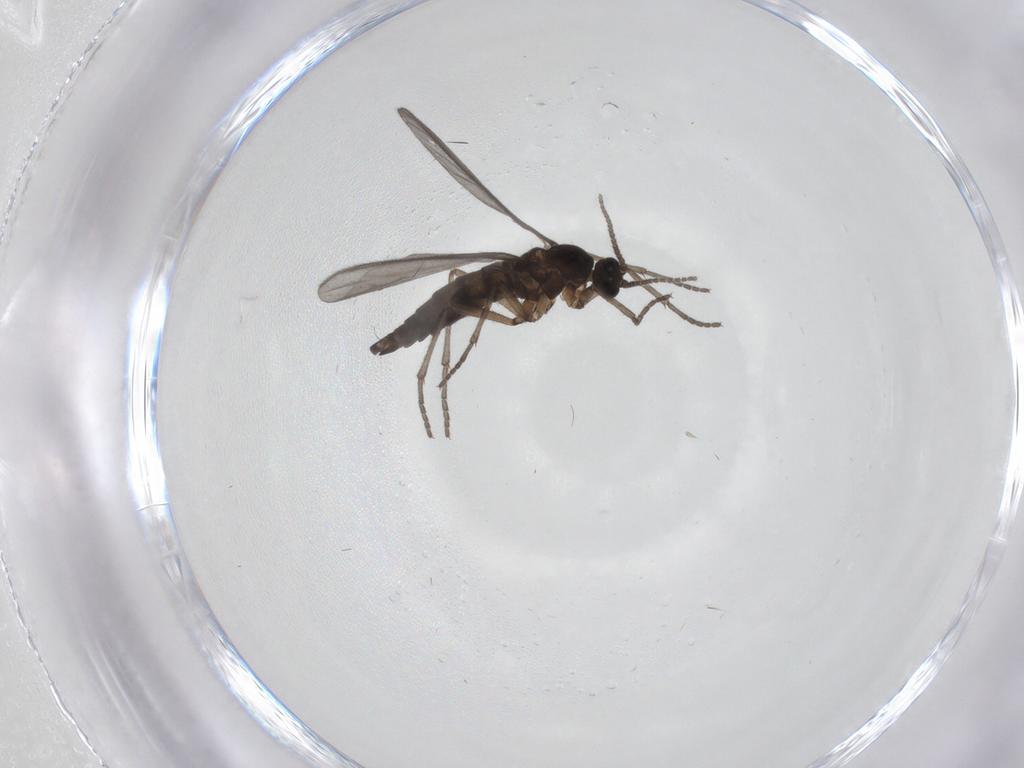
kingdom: Animalia
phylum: Arthropoda
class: Insecta
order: Diptera
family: Sciaridae
